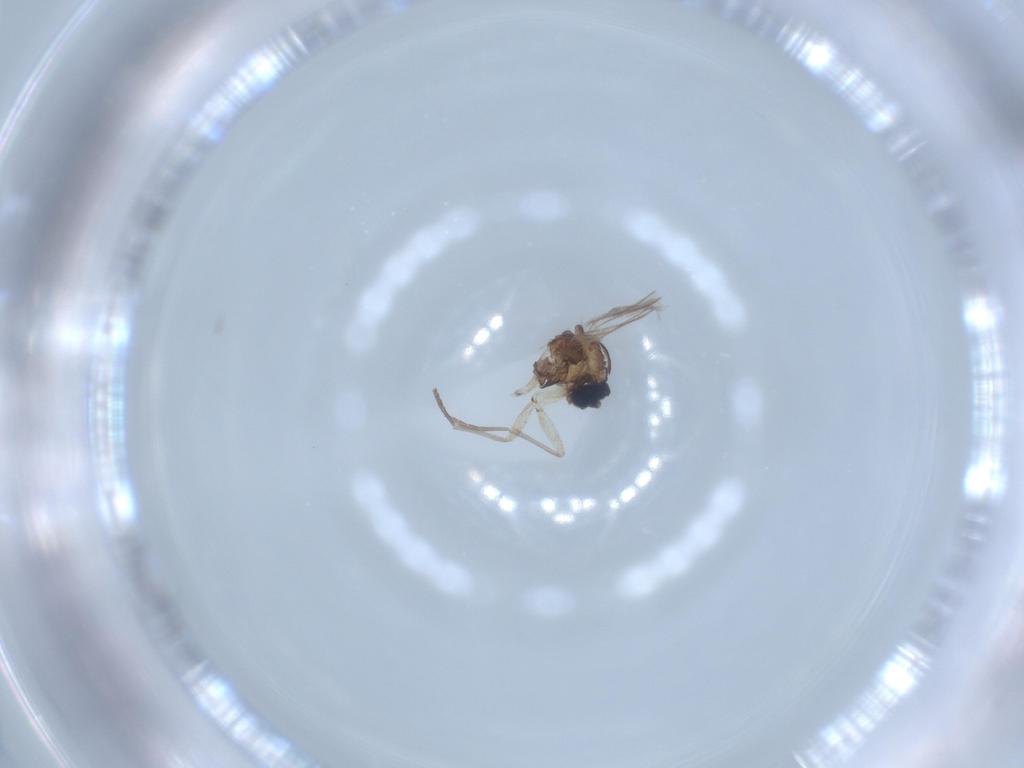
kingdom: Animalia
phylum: Arthropoda
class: Insecta
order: Diptera
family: Sciaridae
